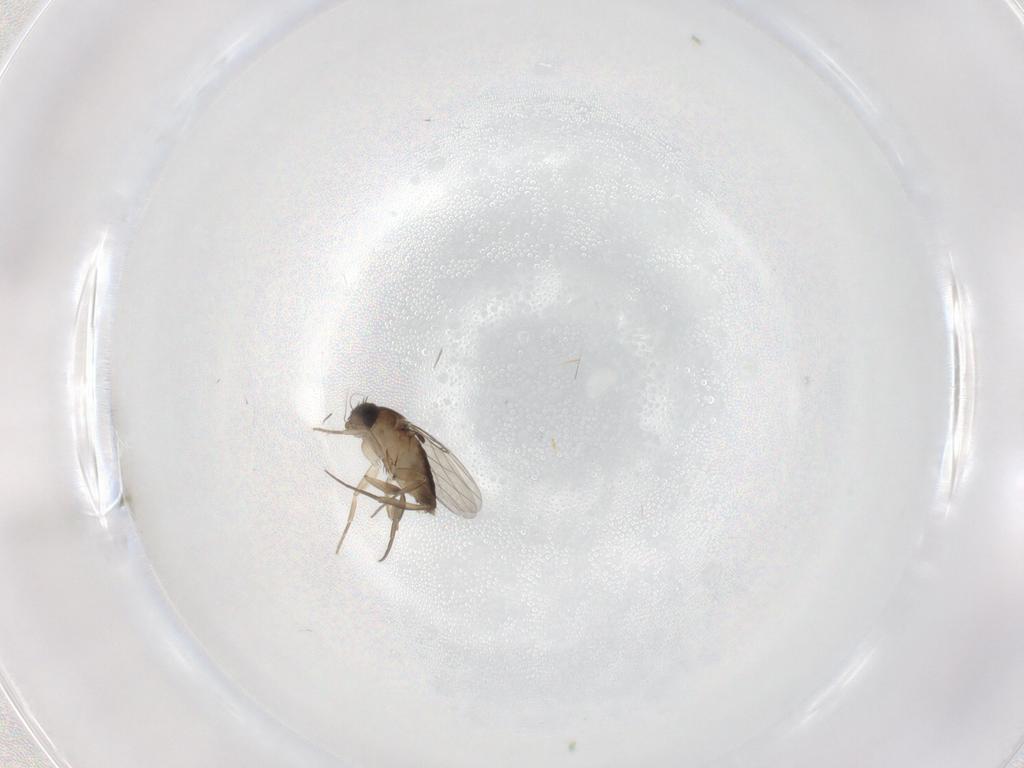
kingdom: Animalia
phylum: Arthropoda
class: Insecta
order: Diptera
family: Phoridae
